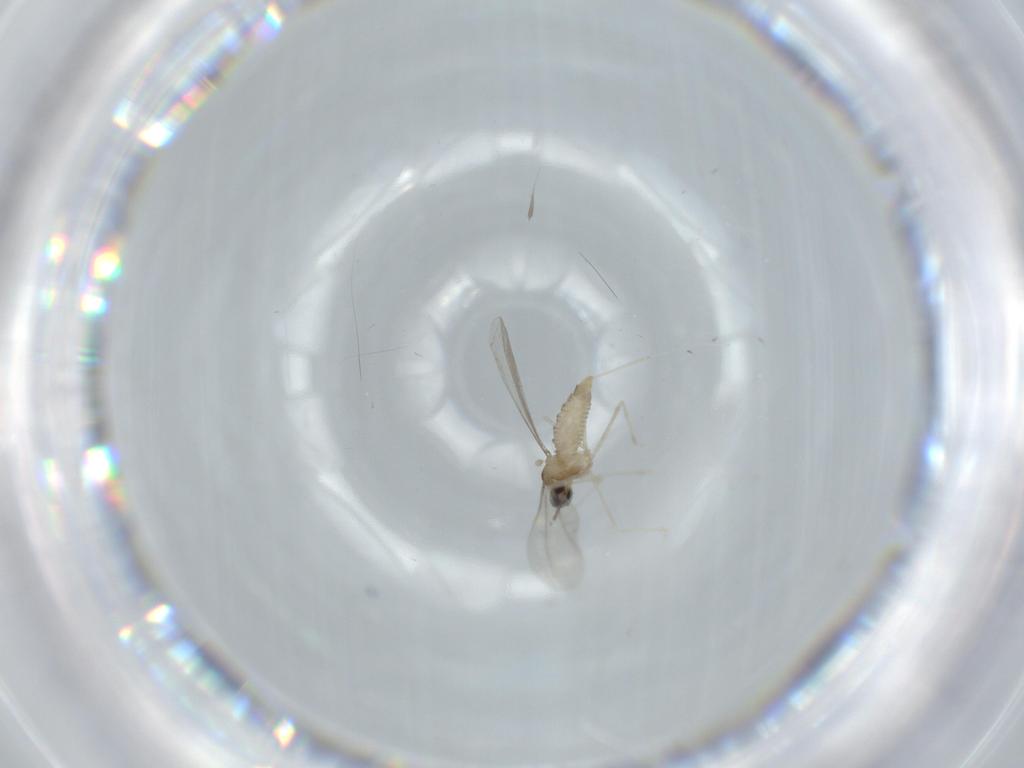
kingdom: Animalia
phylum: Arthropoda
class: Insecta
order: Diptera
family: Cecidomyiidae
